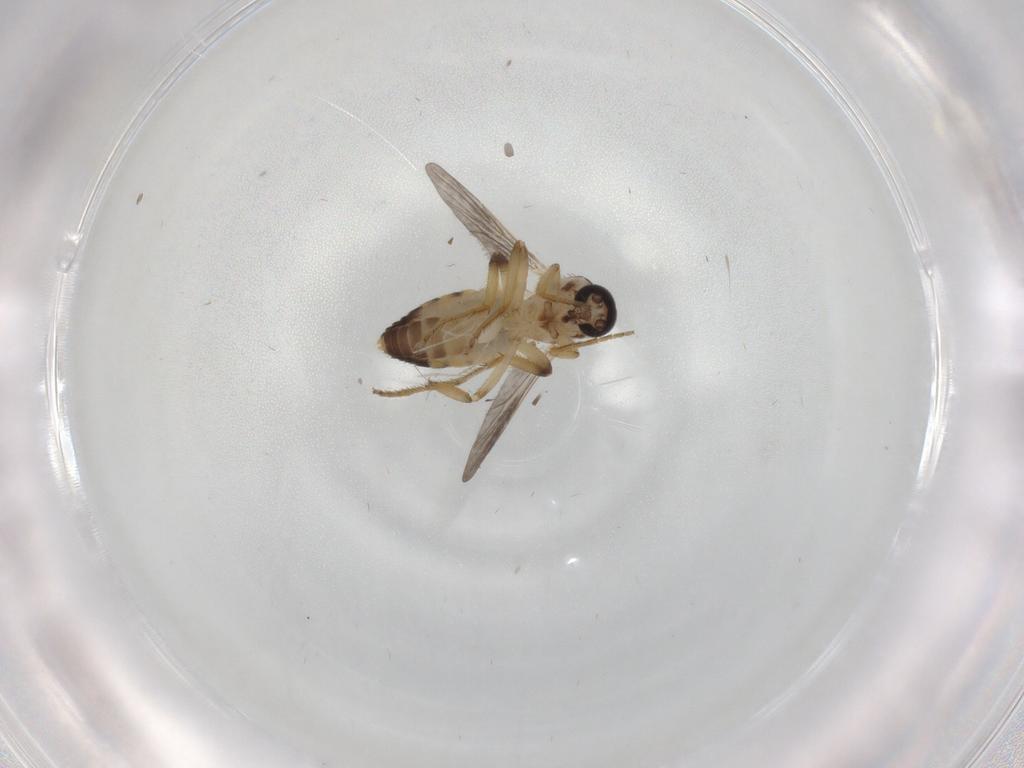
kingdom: Animalia
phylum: Arthropoda
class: Insecta
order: Diptera
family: Ceratopogonidae
